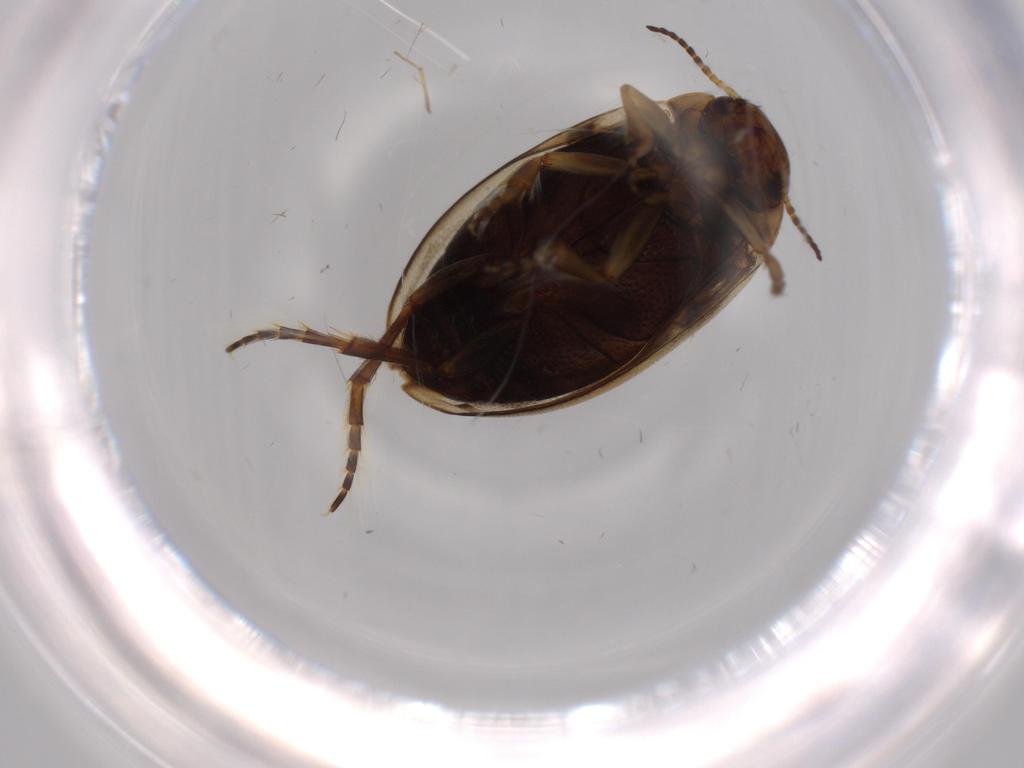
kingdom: Animalia
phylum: Arthropoda
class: Insecta
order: Coleoptera
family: Dytiscidae
